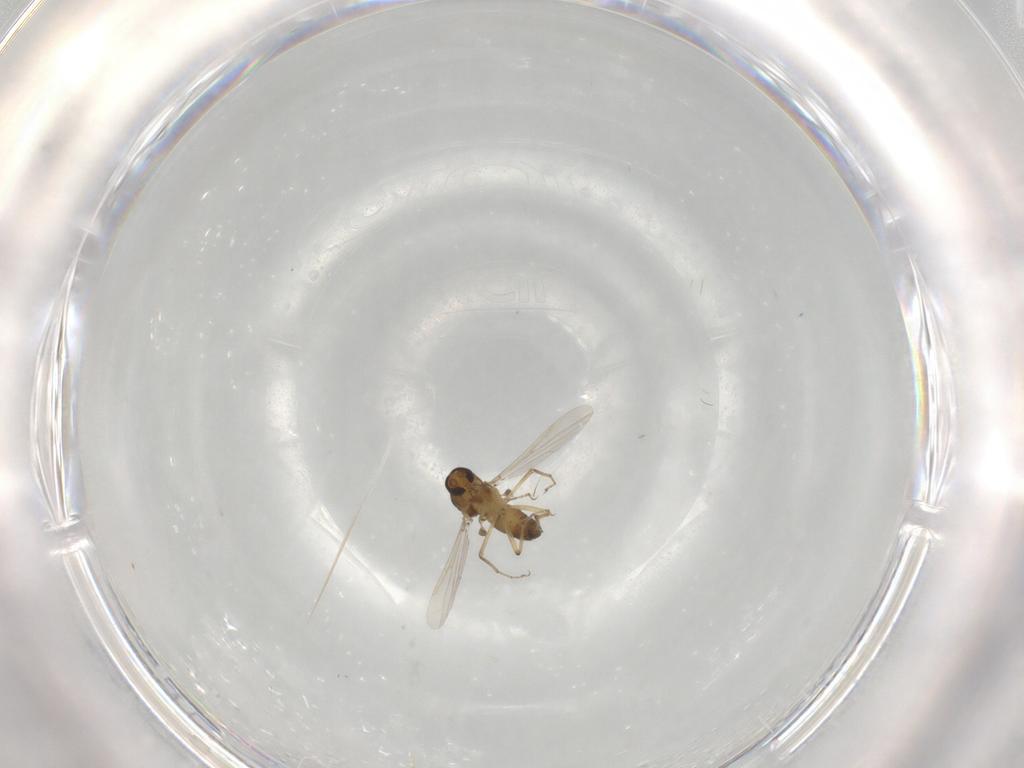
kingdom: Animalia
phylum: Arthropoda
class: Insecta
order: Diptera
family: Ceratopogonidae
